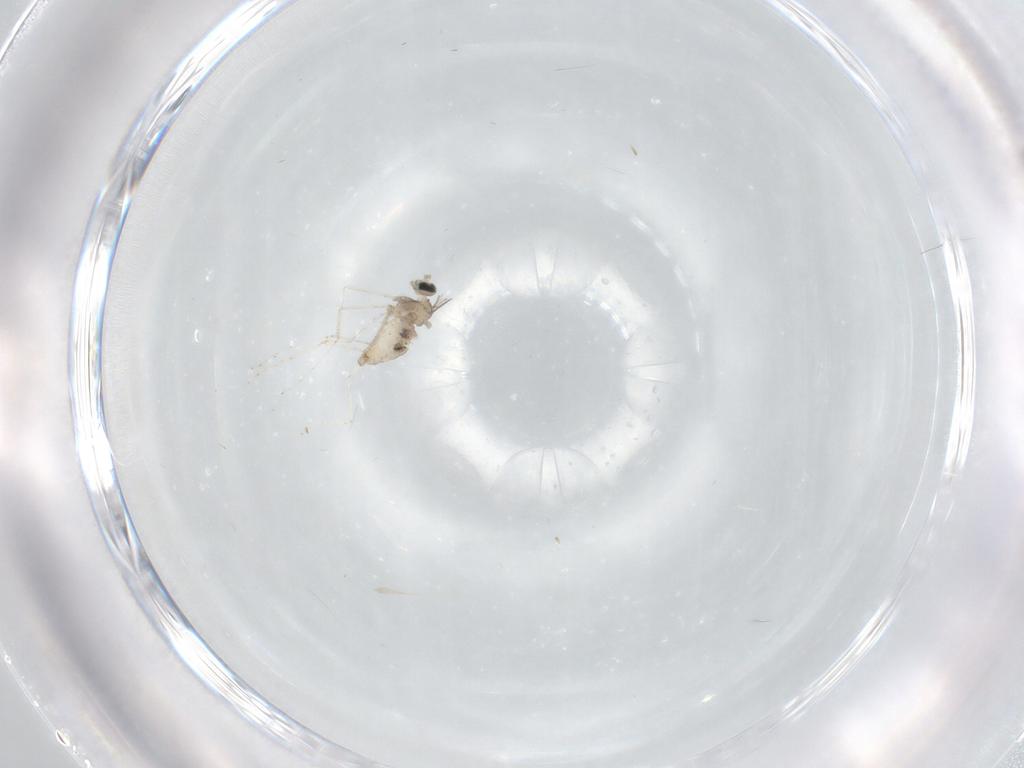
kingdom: Animalia
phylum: Arthropoda
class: Insecta
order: Diptera
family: Cecidomyiidae
